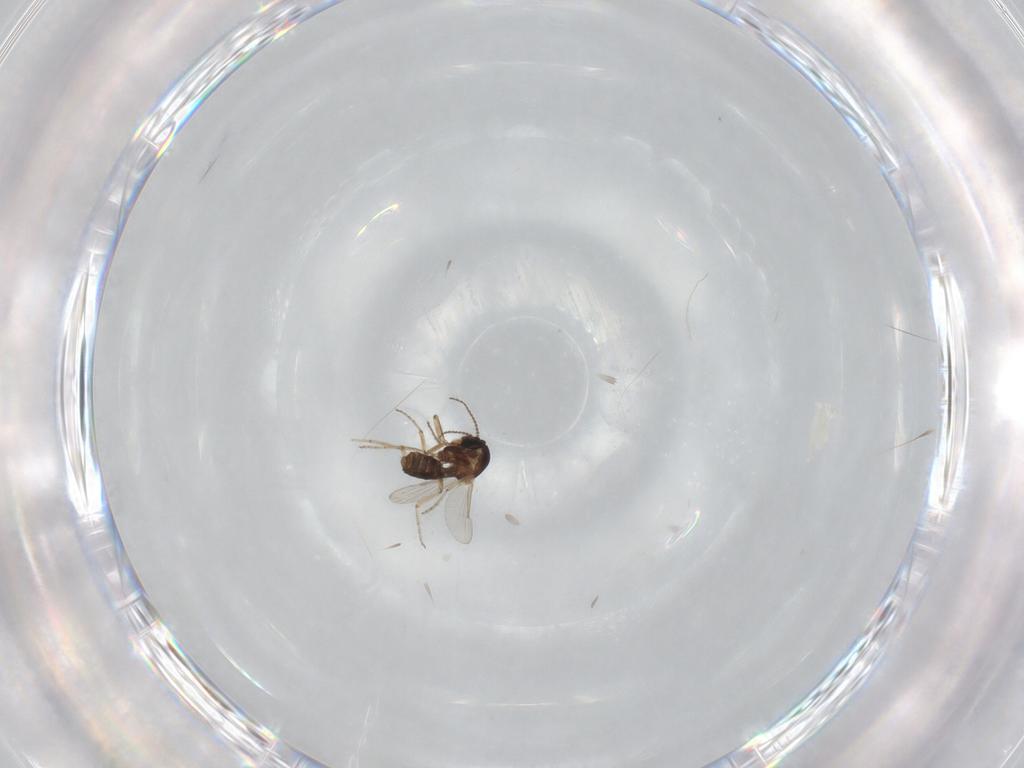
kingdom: Animalia
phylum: Arthropoda
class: Insecta
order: Diptera
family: Ceratopogonidae
